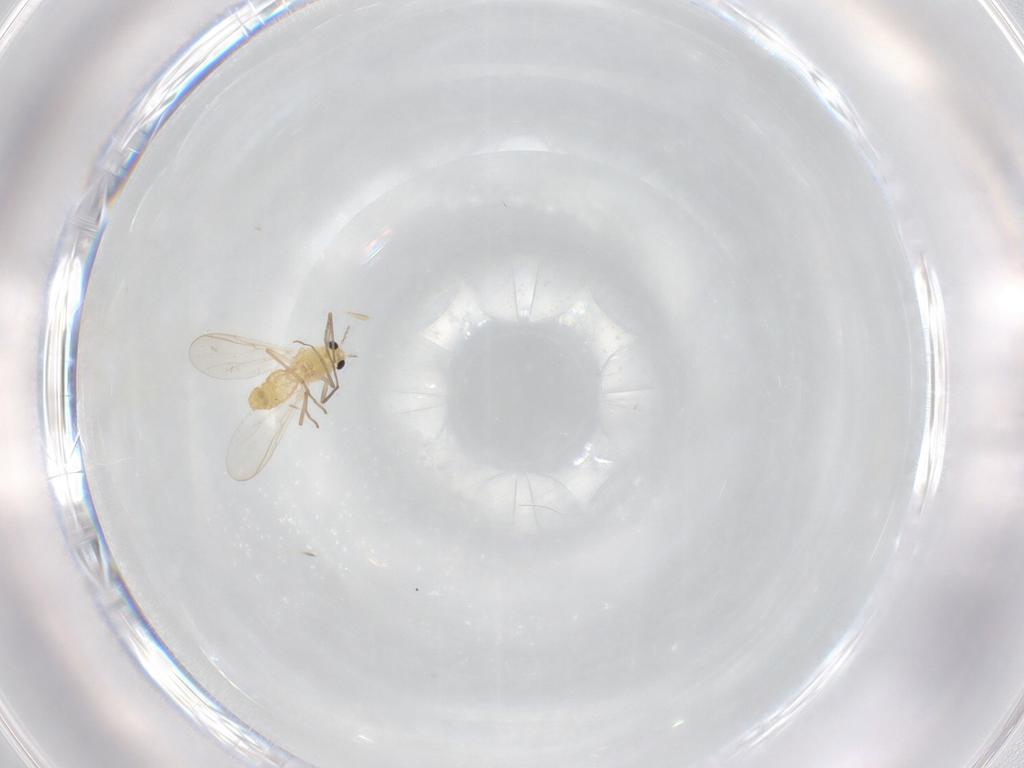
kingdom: Animalia
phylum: Arthropoda
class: Insecta
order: Diptera
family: Chironomidae
